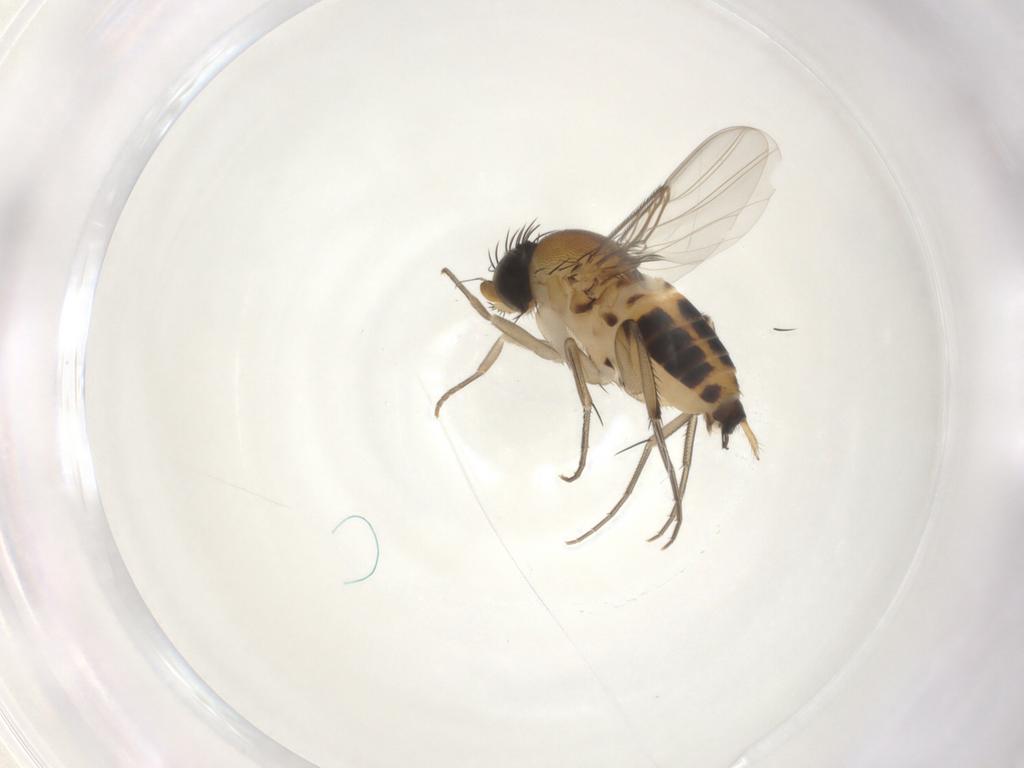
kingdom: Animalia
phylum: Arthropoda
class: Insecta
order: Diptera
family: Phoridae
